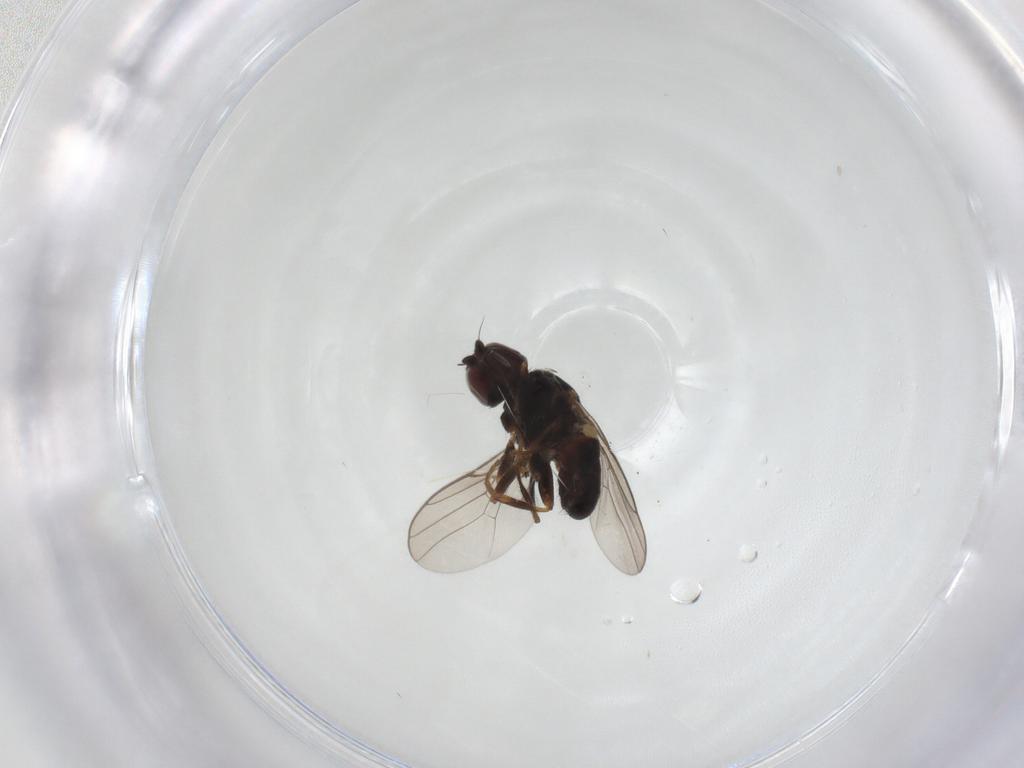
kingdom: Animalia
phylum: Arthropoda
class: Insecta
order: Diptera
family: Chloropidae
